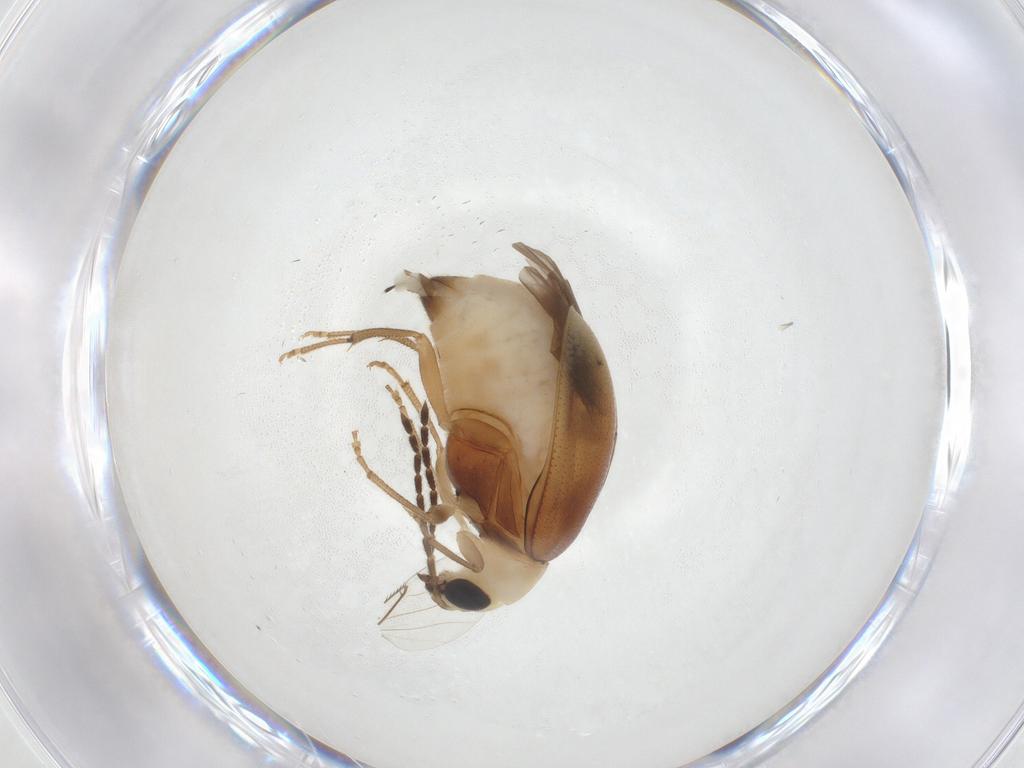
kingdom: Animalia
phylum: Arthropoda
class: Insecta
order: Coleoptera
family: Chrysomelidae
